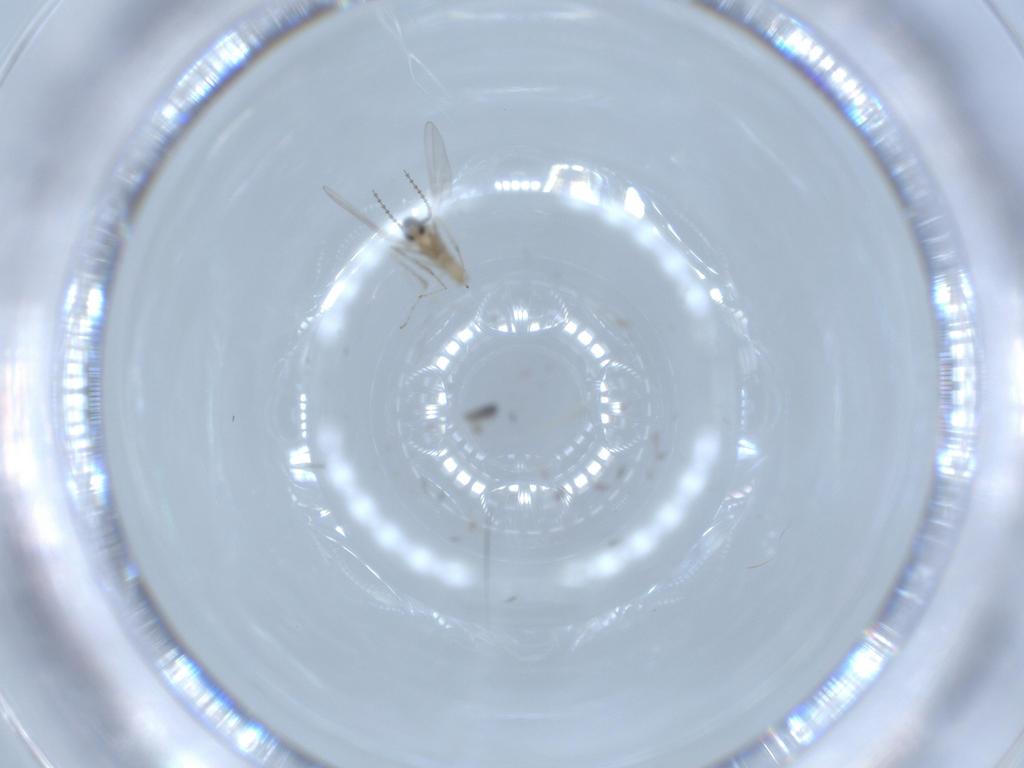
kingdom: Animalia
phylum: Arthropoda
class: Insecta
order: Diptera
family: Cecidomyiidae
